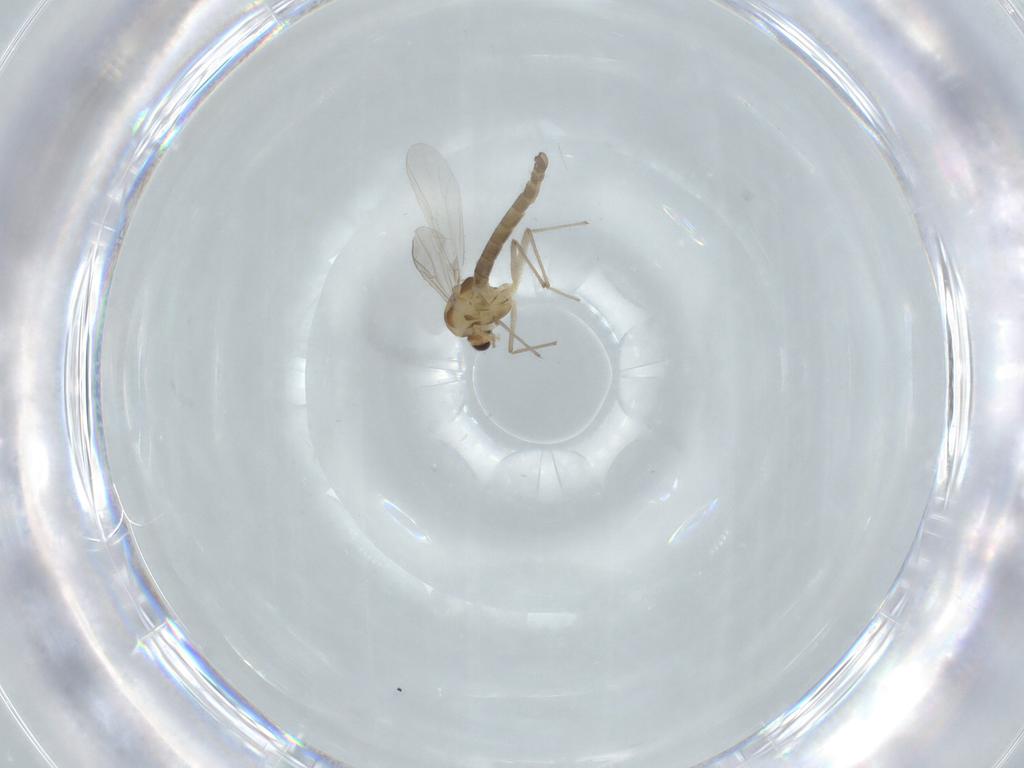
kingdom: Animalia
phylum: Arthropoda
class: Insecta
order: Diptera
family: Chironomidae
